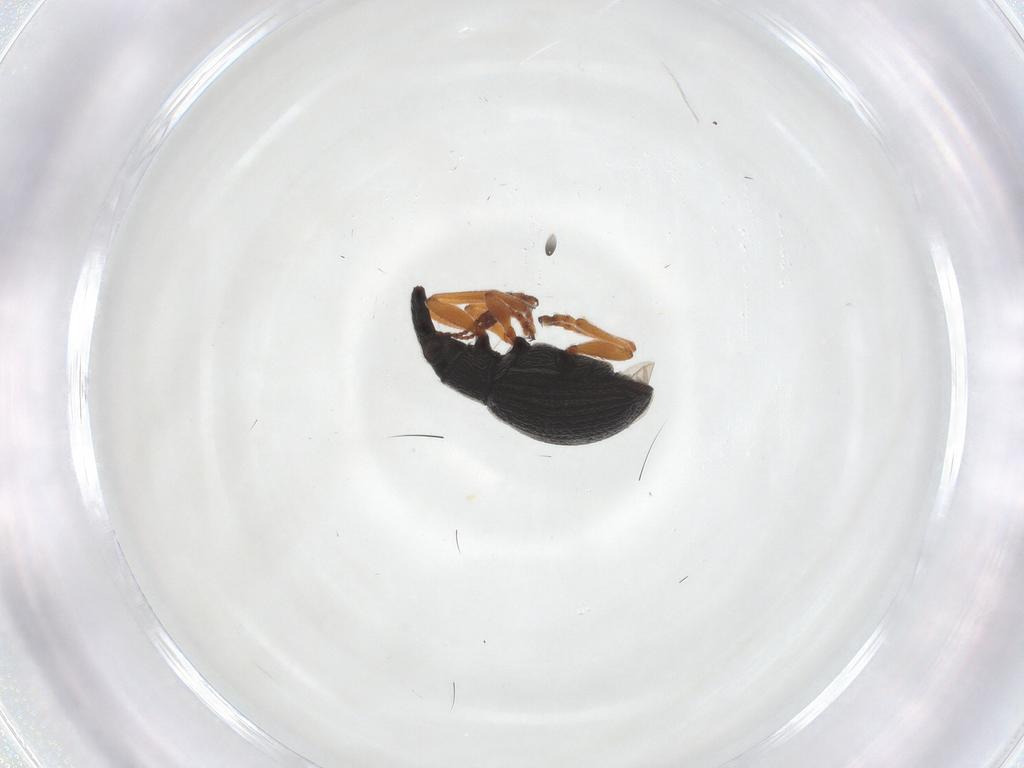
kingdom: Animalia
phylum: Arthropoda
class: Insecta
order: Coleoptera
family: Apionidae
